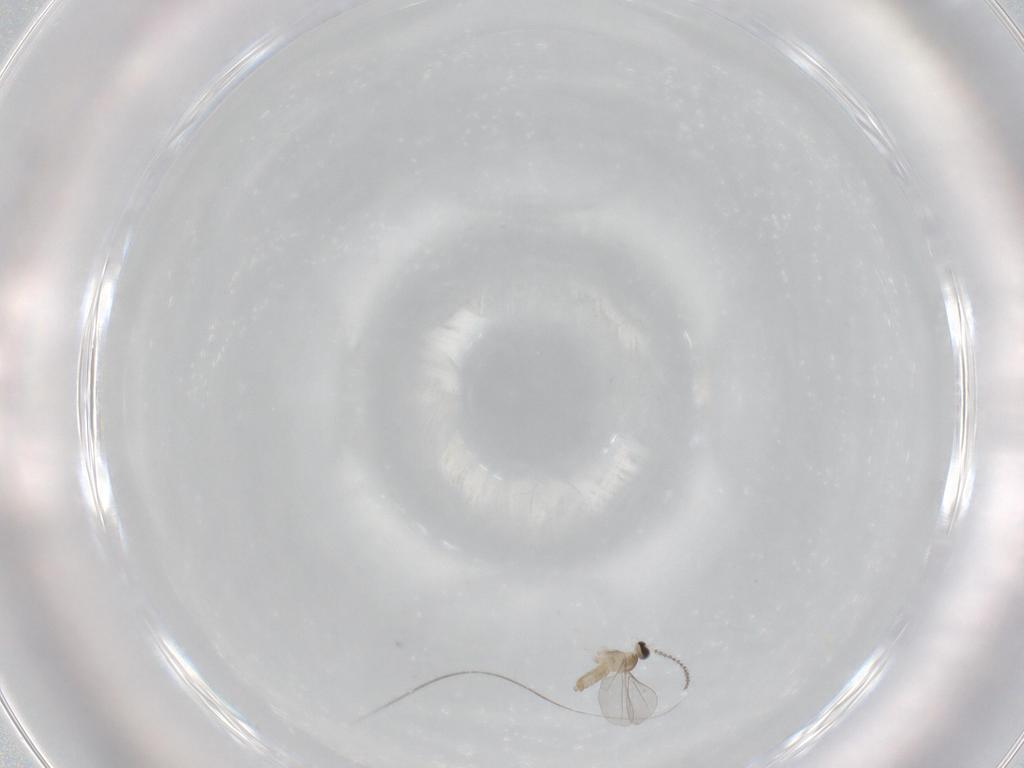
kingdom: Animalia
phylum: Arthropoda
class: Insecta
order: Diptera
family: Cecidomyiidae
